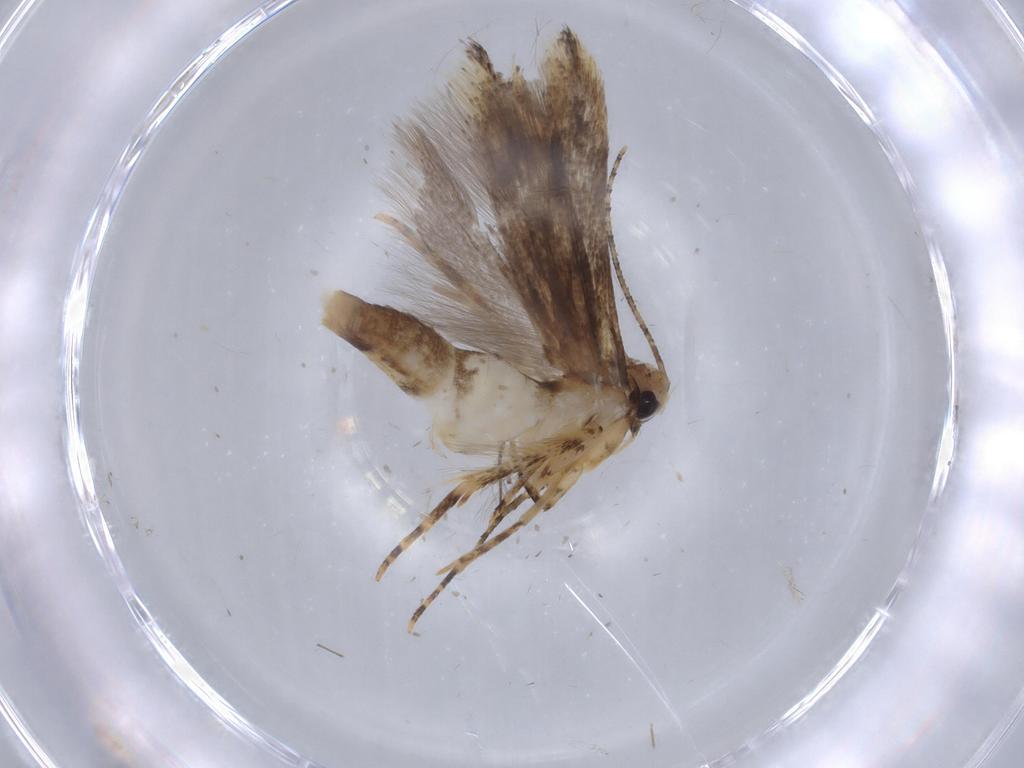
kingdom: Animalia
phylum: Arthropoda
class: Insecta
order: Lepidoptera
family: Gelechiidae
